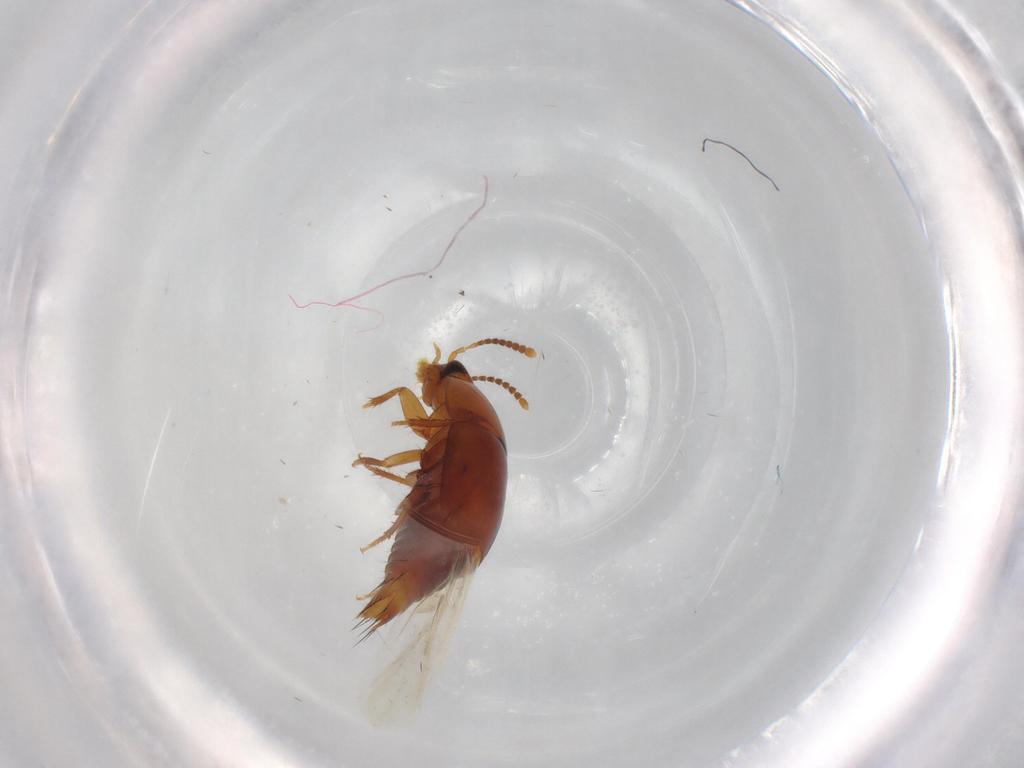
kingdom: Animalia
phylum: Arthropoda
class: Insecta
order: Coleoptera
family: Staphylinidae
